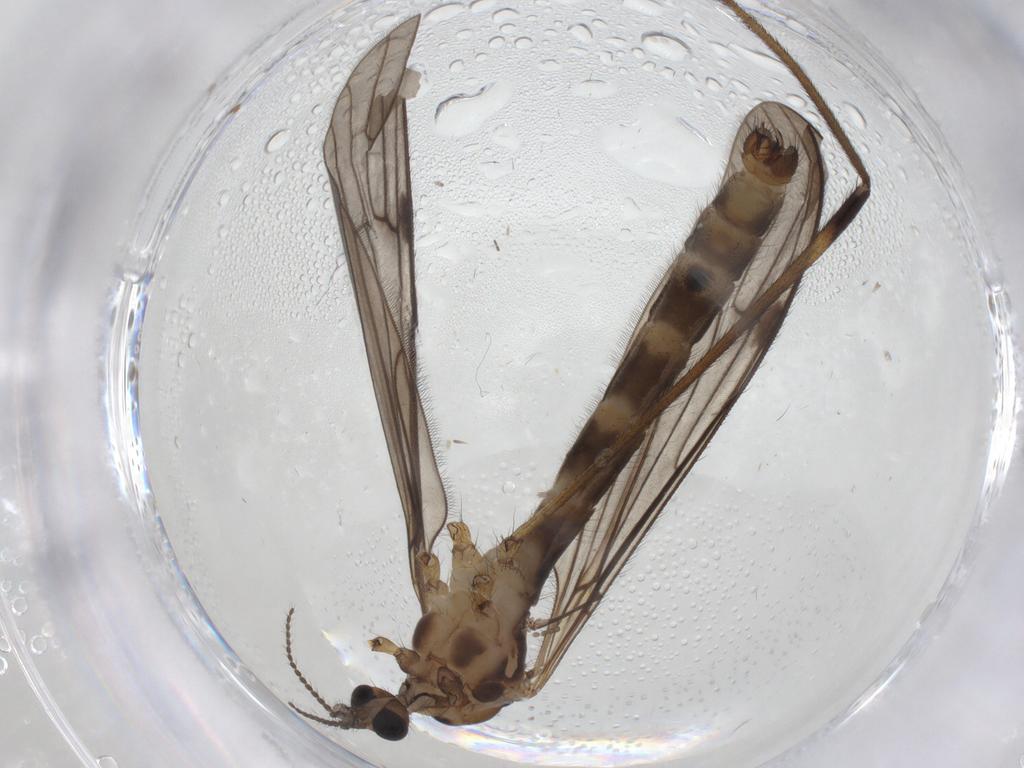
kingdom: Animalia
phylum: Arthropoda
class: Insecta
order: Diptera
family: Limoniidae
